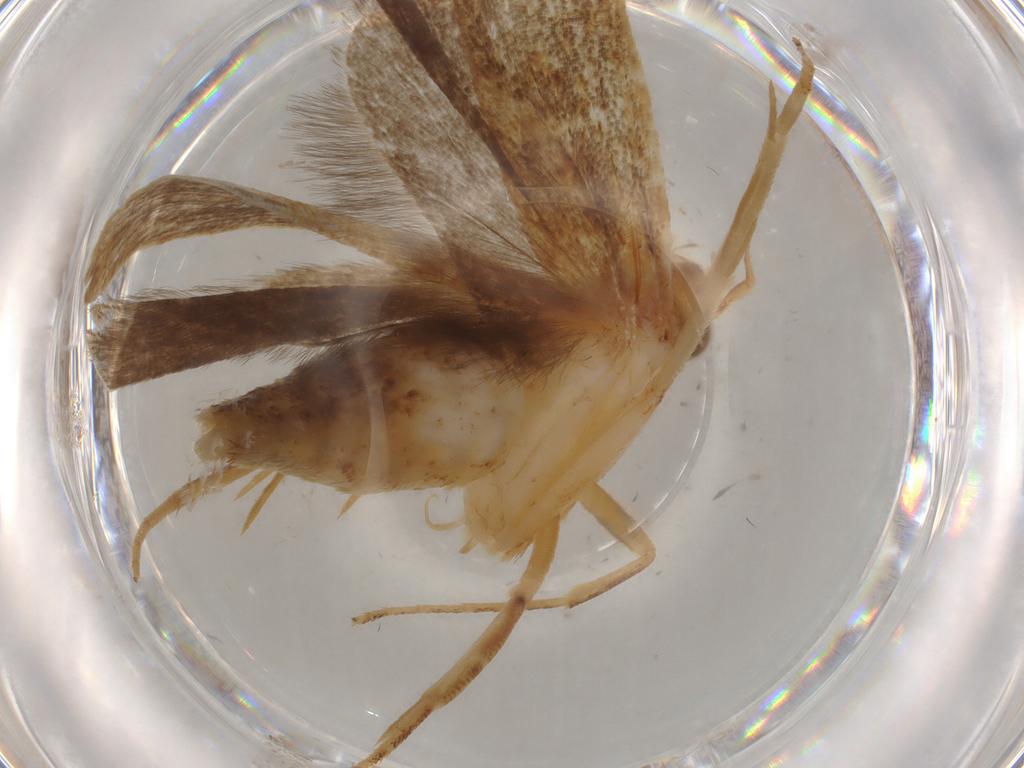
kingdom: Animalia
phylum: Arthropoda
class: Insecta
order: Lepidoptera
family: Gelechiidae
